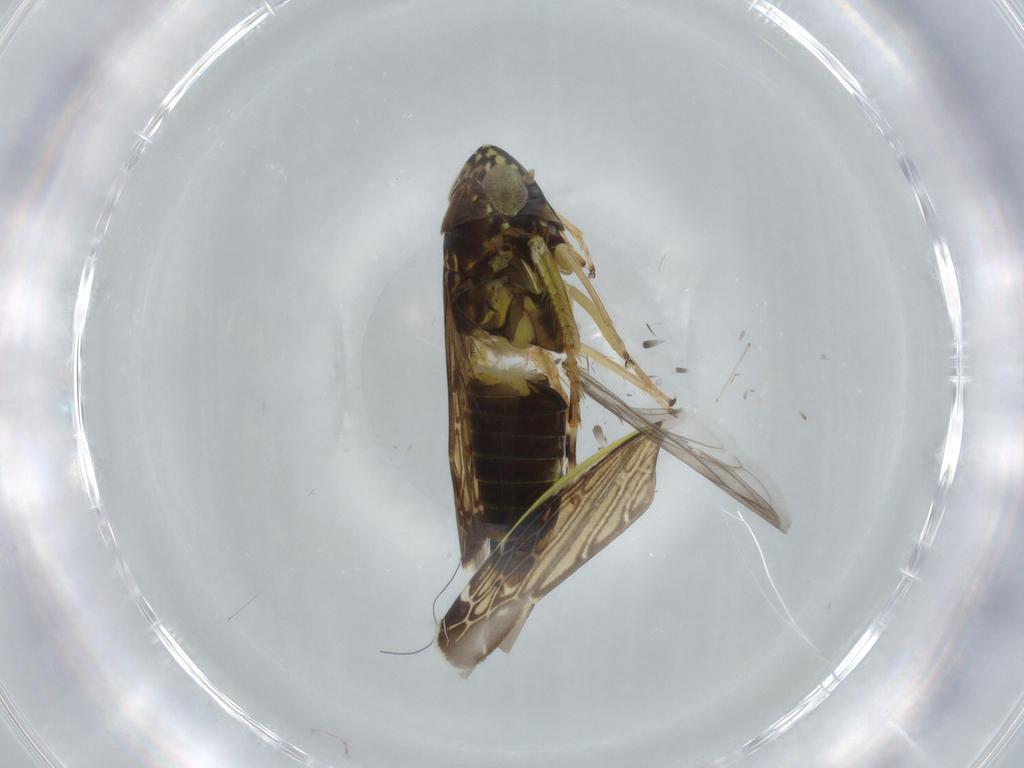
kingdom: Animalia
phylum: Arthropoda
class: Insecta
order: Hemiptera
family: Cicadellidae
